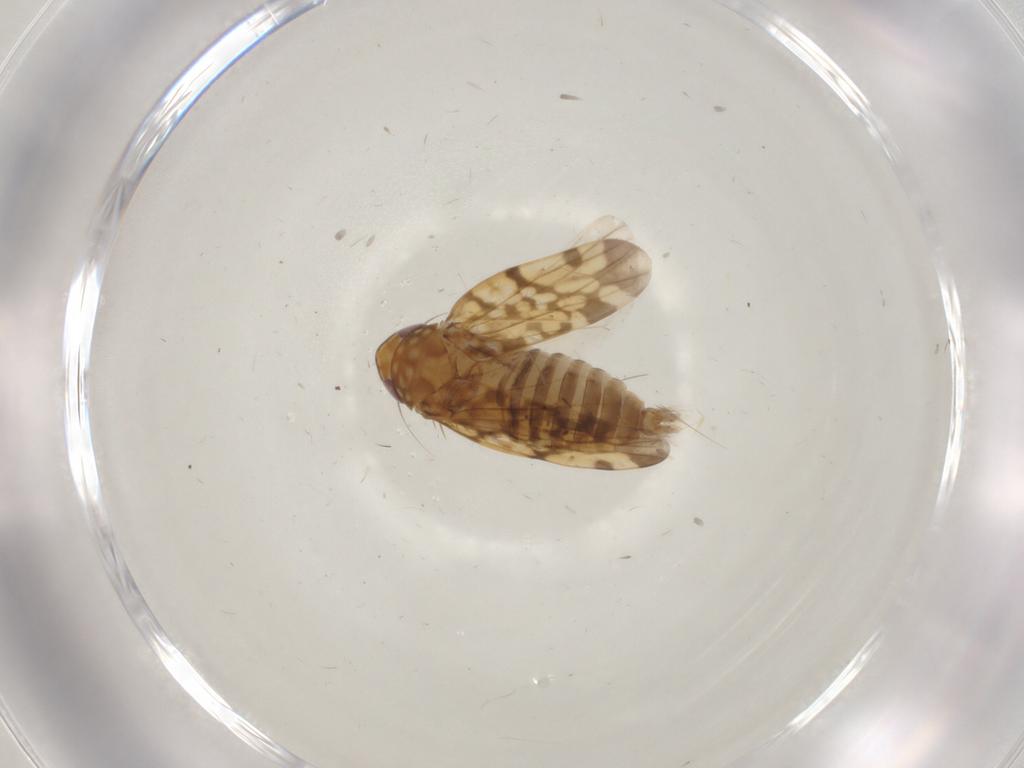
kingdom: Animalia
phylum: Arthropoda
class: Insecta
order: Hemiptera
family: Cicadellidae
